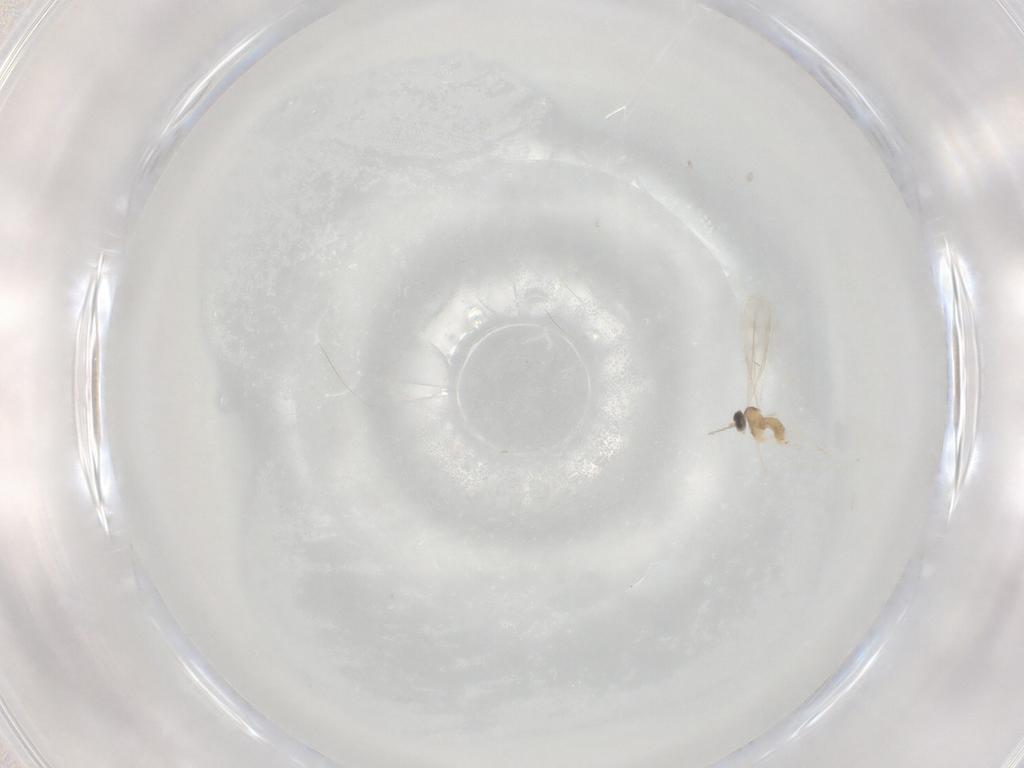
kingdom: Animalia
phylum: Arthropoda
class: Insecta
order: Diptera
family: Cecidomyiidae
